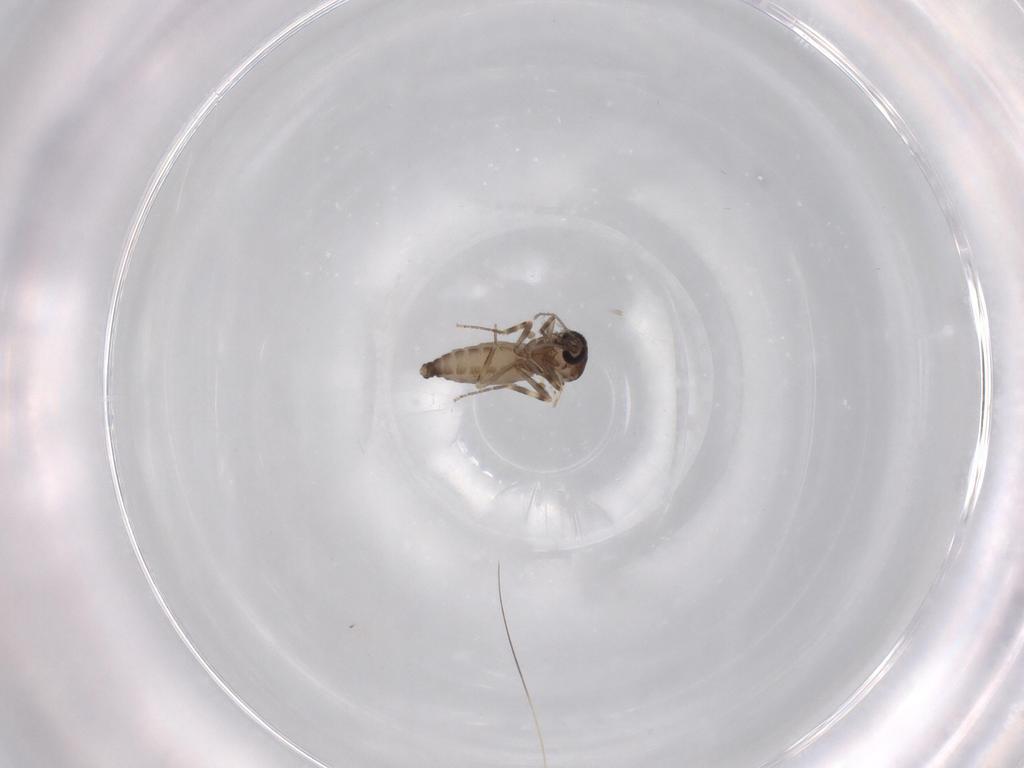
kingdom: Animalia
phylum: Arthropoda
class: Insecta
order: Diptera
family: Ceratopogonidae
